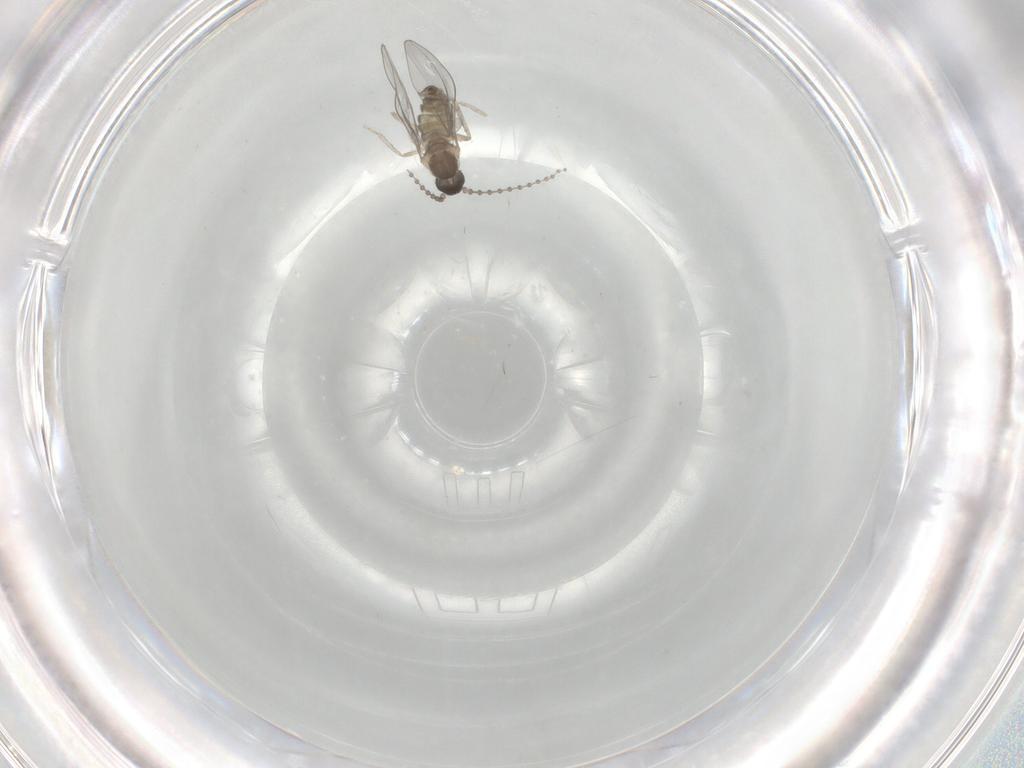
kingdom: Animalia
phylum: Arthropoda
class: Insecta
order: Diptera
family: Cecidomyiidae
